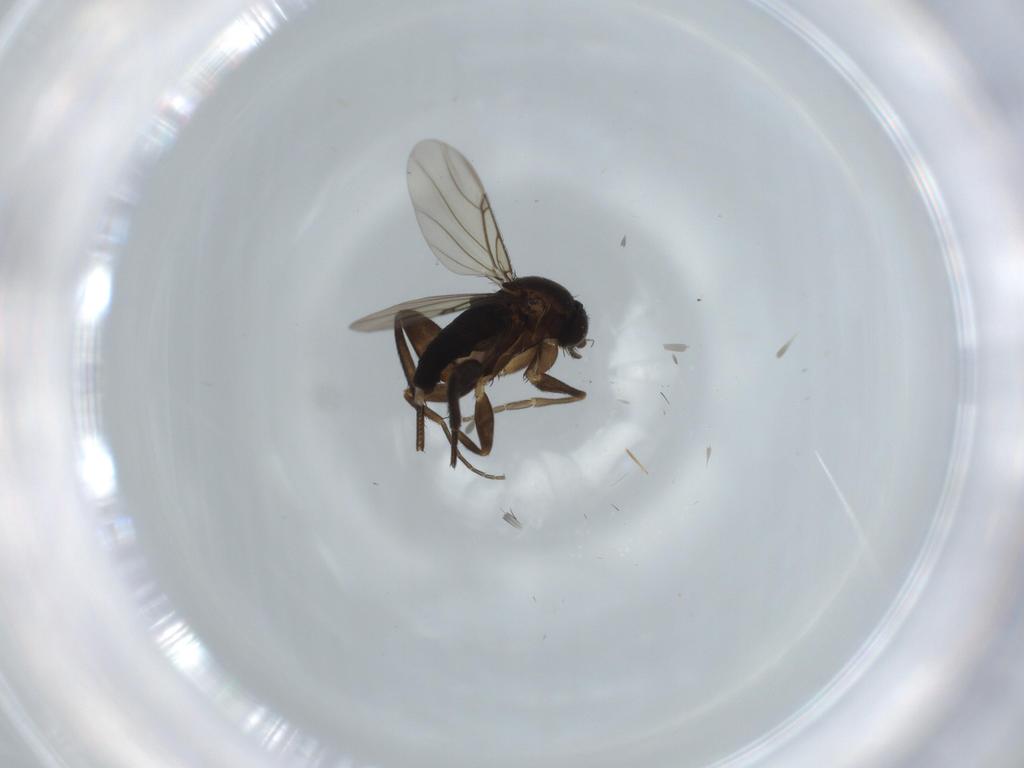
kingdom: Animalia
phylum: Arthropoda
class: Insecta
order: Diptera
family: Phoridae
